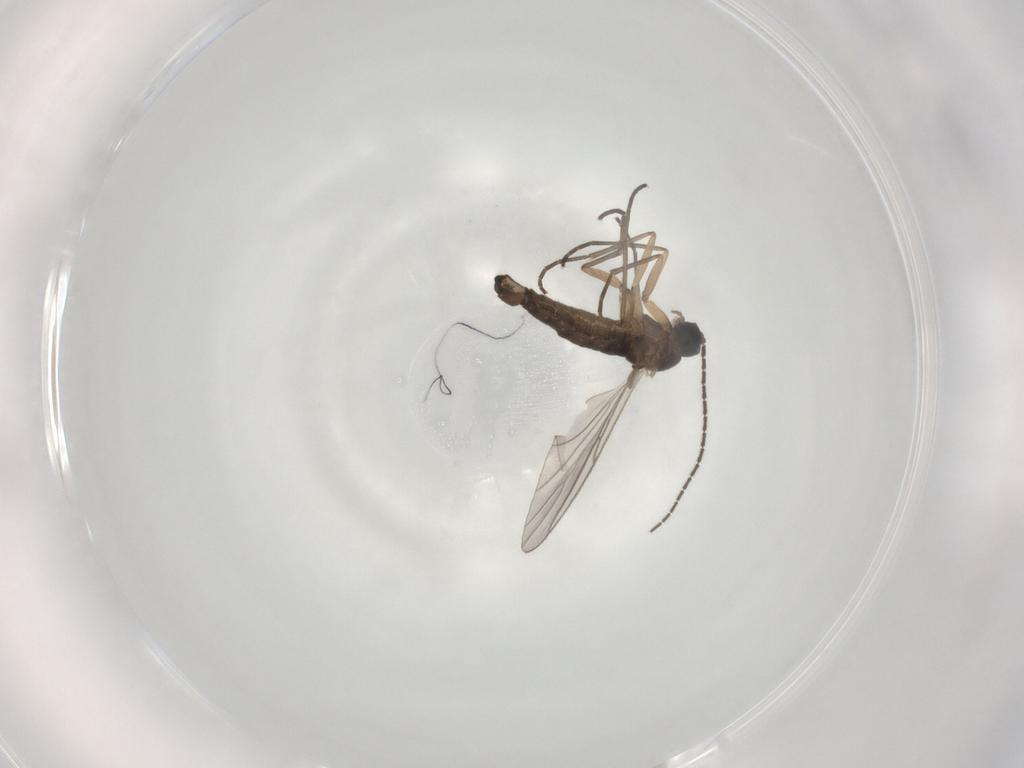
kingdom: Animalia
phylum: Arthropoda
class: Insecta
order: Diptera
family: Sciaridae
